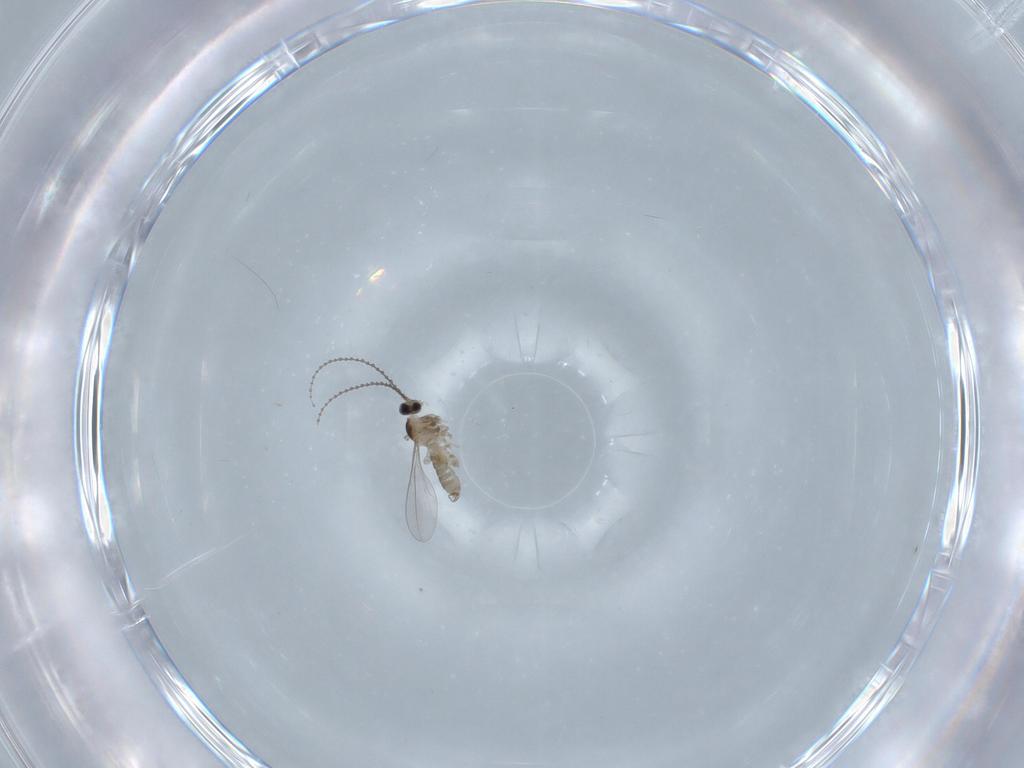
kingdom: Animalia
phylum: Arthropoda
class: Insecta
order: Diptera
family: Cecidomyiidae
